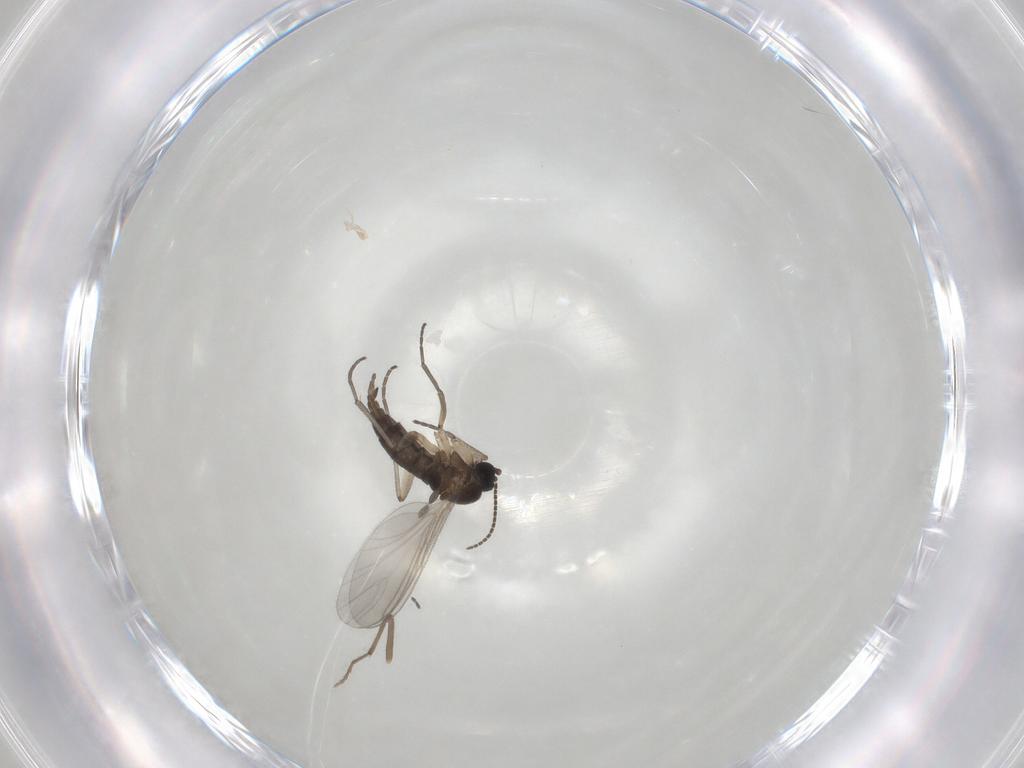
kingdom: Animalia
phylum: Arthropoda
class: Insecta
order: Diptera
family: Sciaridae
